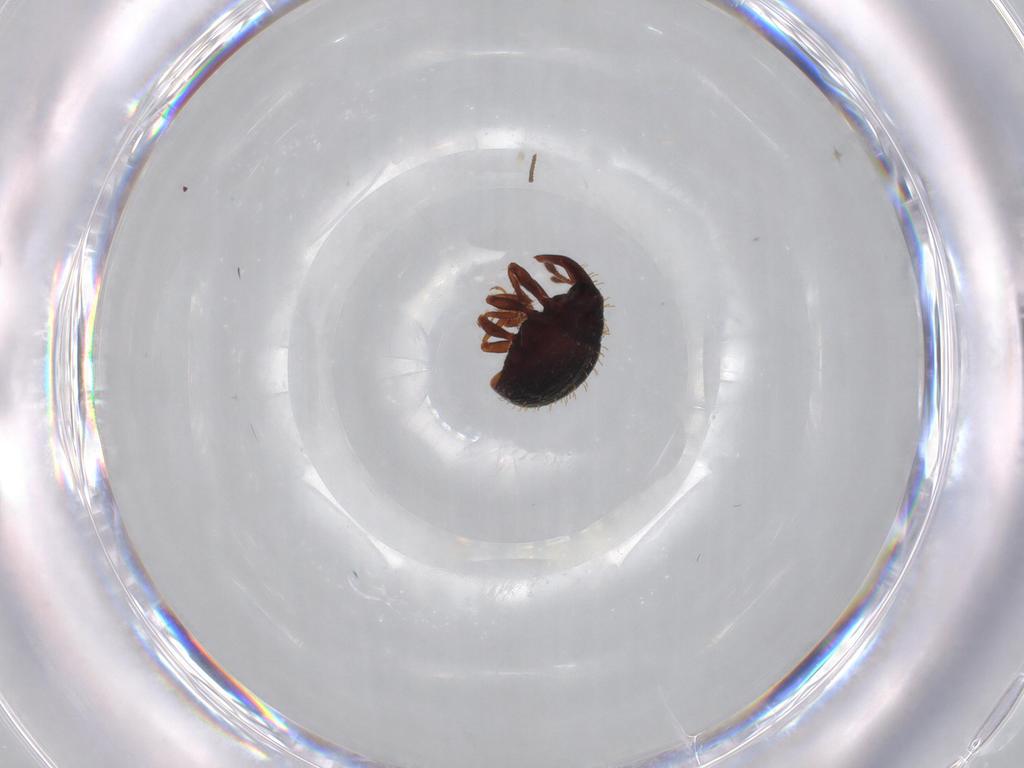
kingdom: Animalia
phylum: Arthropoda
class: Insecta
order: Coleoptera
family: Curculionidae
